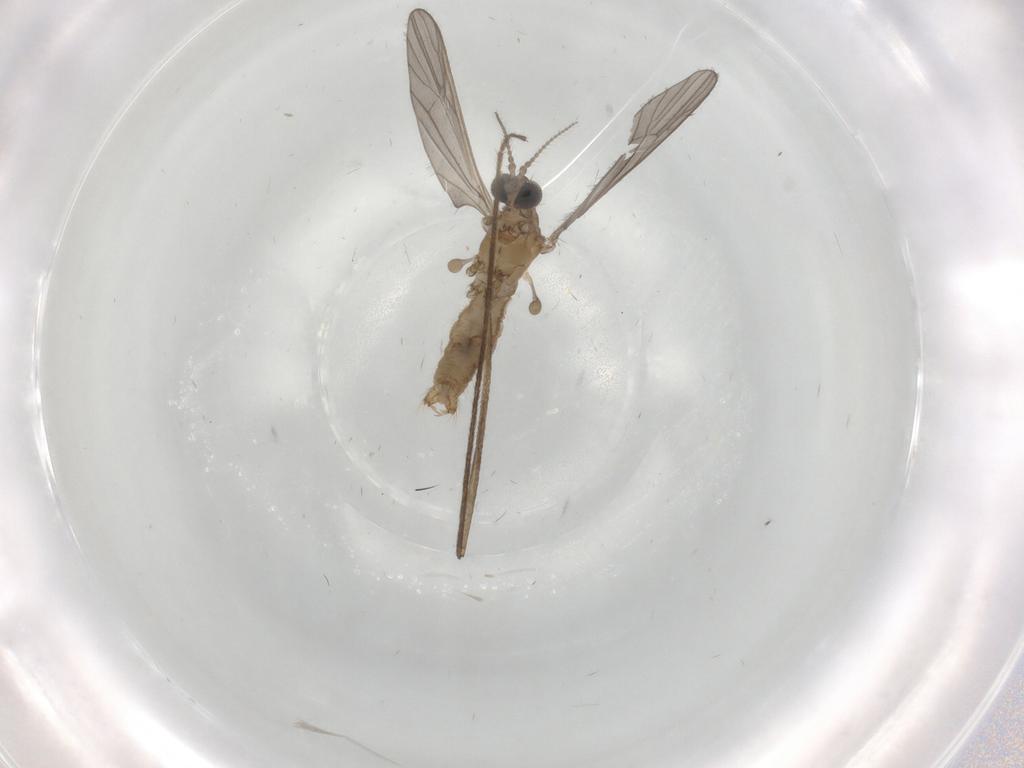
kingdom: Animalia
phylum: Arthropoda
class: Insecta
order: Diptera
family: Limoniidae
